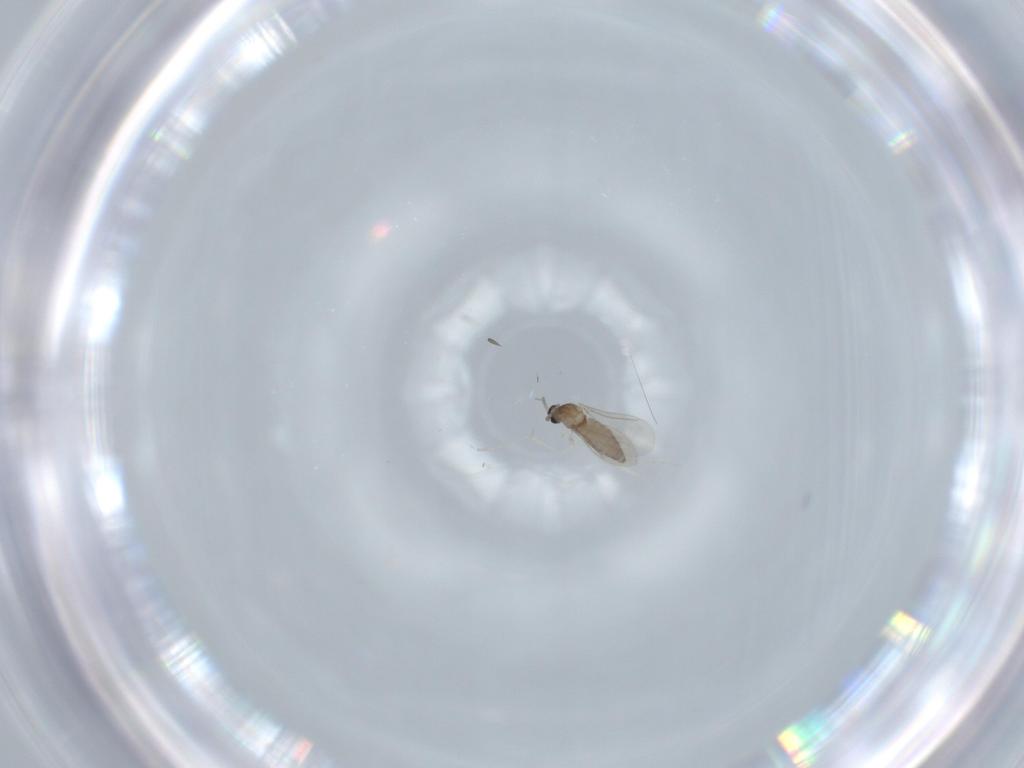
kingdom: Animalia
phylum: Arthropoda
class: Insecta
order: Diptera
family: Cecidomyiidae
